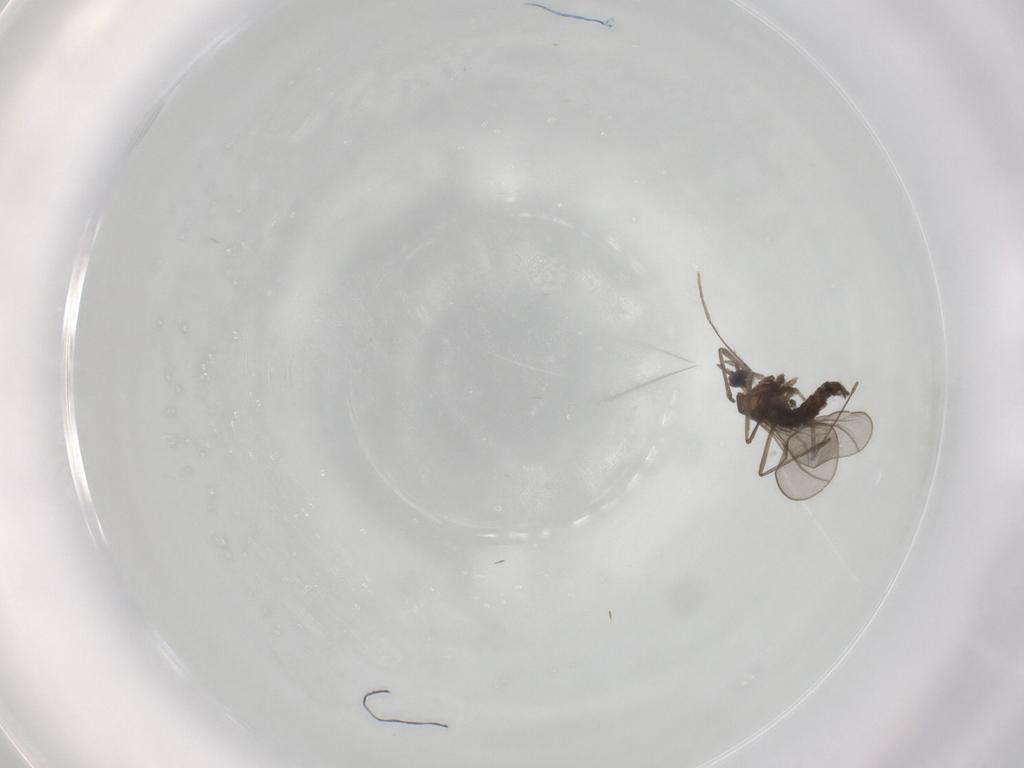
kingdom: Animalia
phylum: Arthropoda
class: Insecta
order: Diptera
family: Cecidomyiidae
